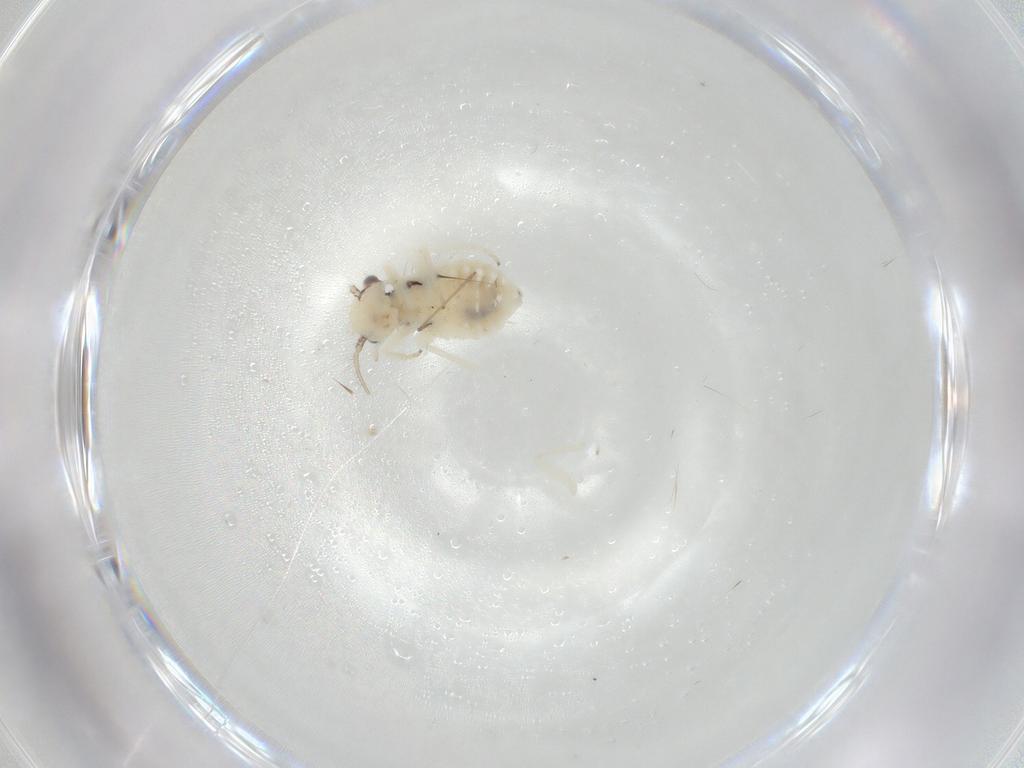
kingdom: Animalia
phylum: Arthropoda
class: Insecta
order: Psocodea
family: Philotarsidae
